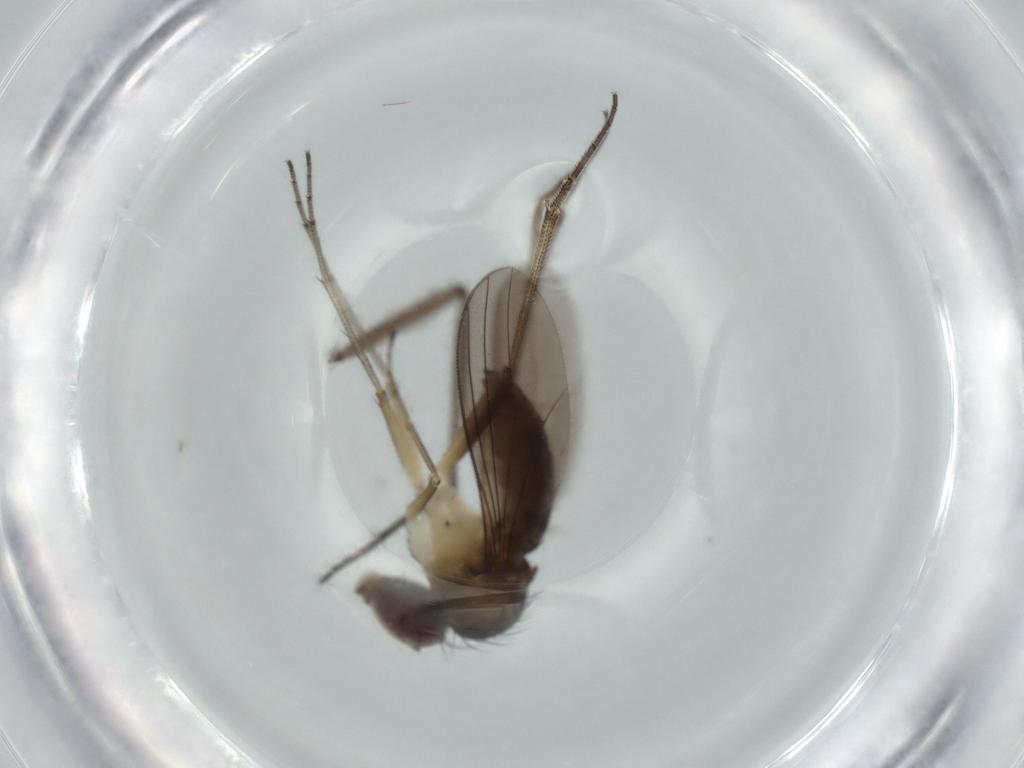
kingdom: Animalia
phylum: Arthropoda
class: Insecta
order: Diptera
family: Dolichopodidae
